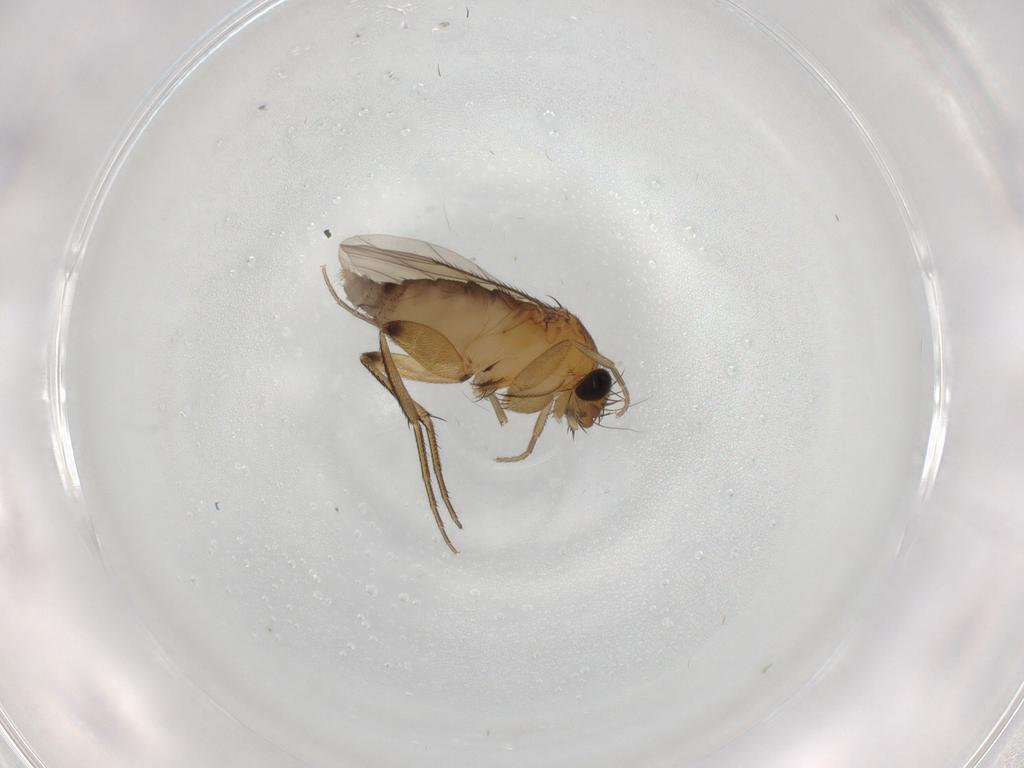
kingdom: Animalia
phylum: Arthropoda
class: Insecta
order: Diptera
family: Phoridae
